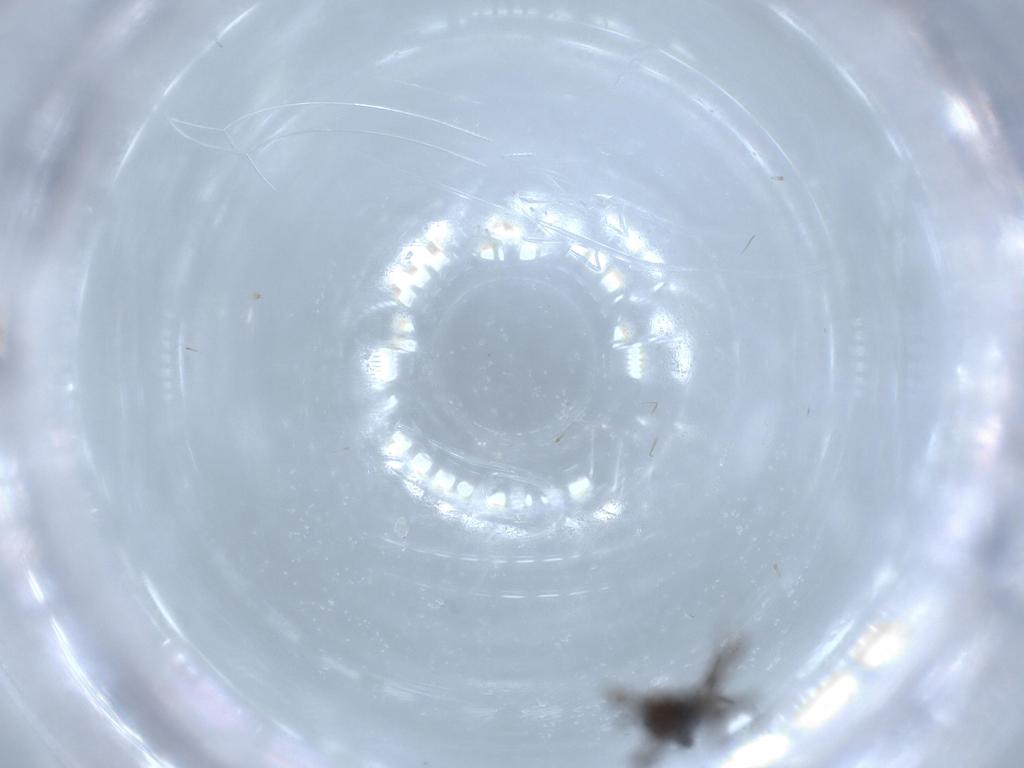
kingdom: Animalia
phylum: Arthropoda
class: Insecta
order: Diptera
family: Sciaridae
